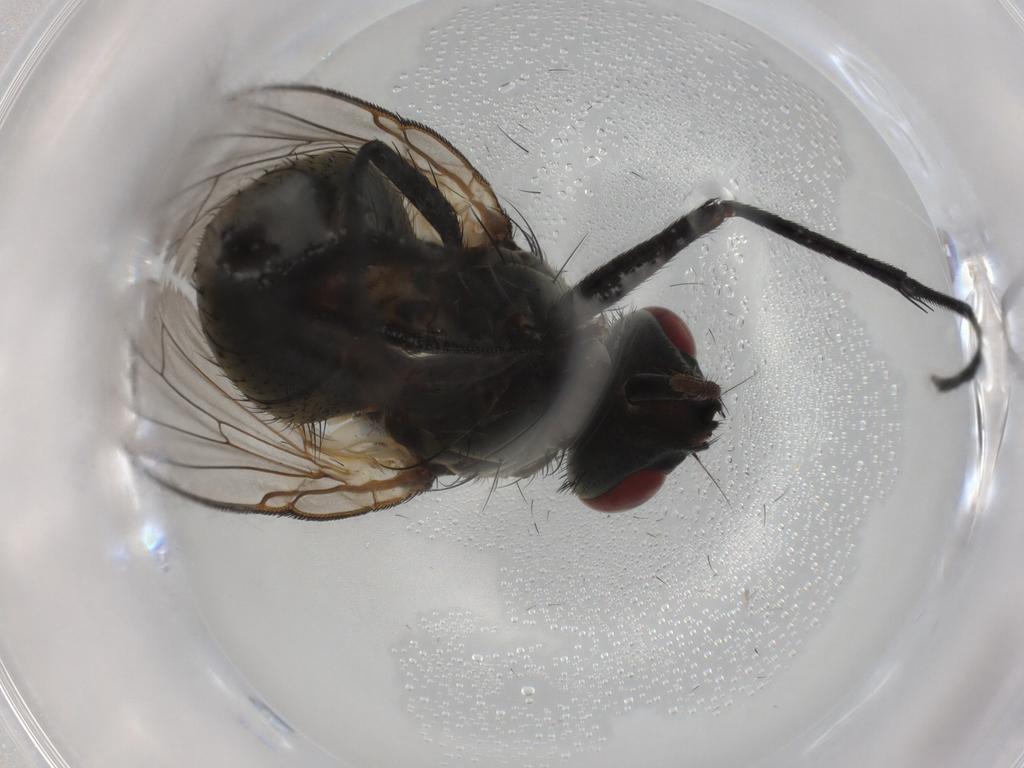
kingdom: Animalia
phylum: Arthropoda
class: Insecta
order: Diptera
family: Muscidae
